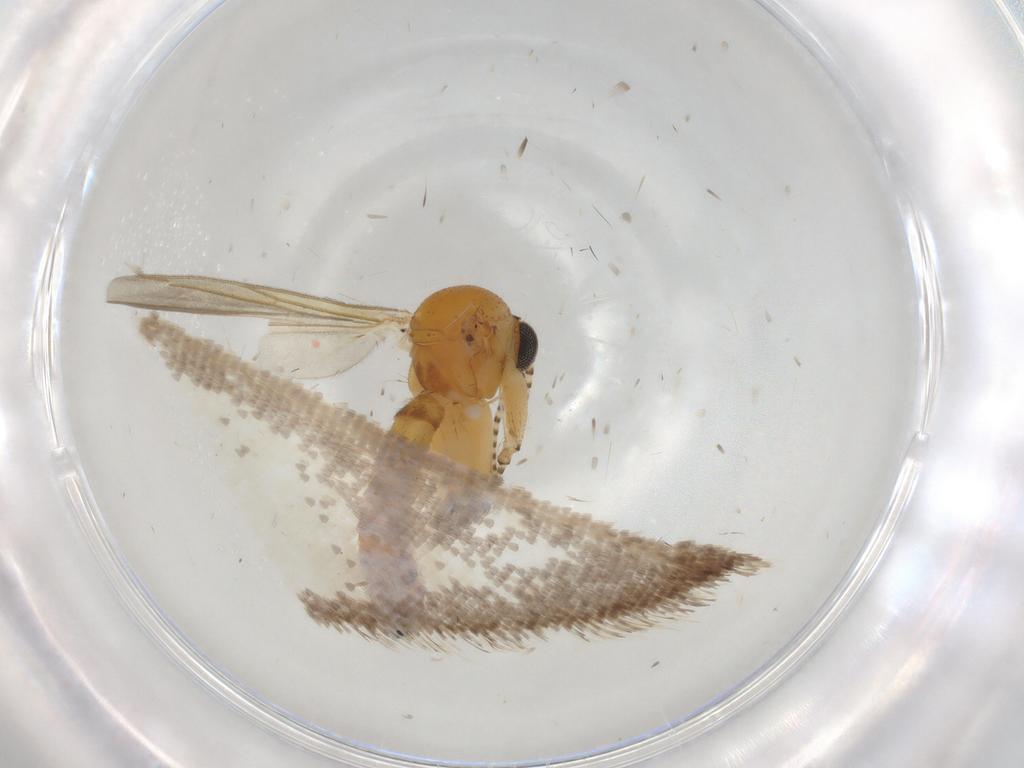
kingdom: Animalia
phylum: Arthropoda
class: Insecta
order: Diptera
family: Mycetophilidae
